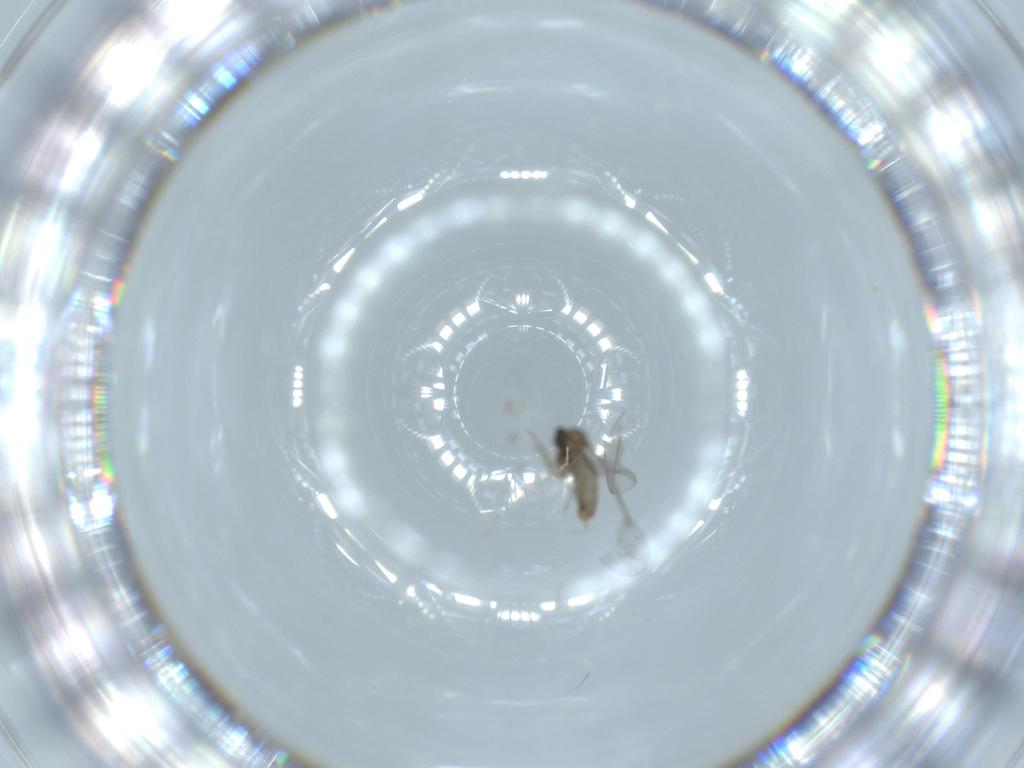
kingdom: Animalia
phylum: Arthropoda
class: Insecta
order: Diptera
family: Cecidomyiidae
